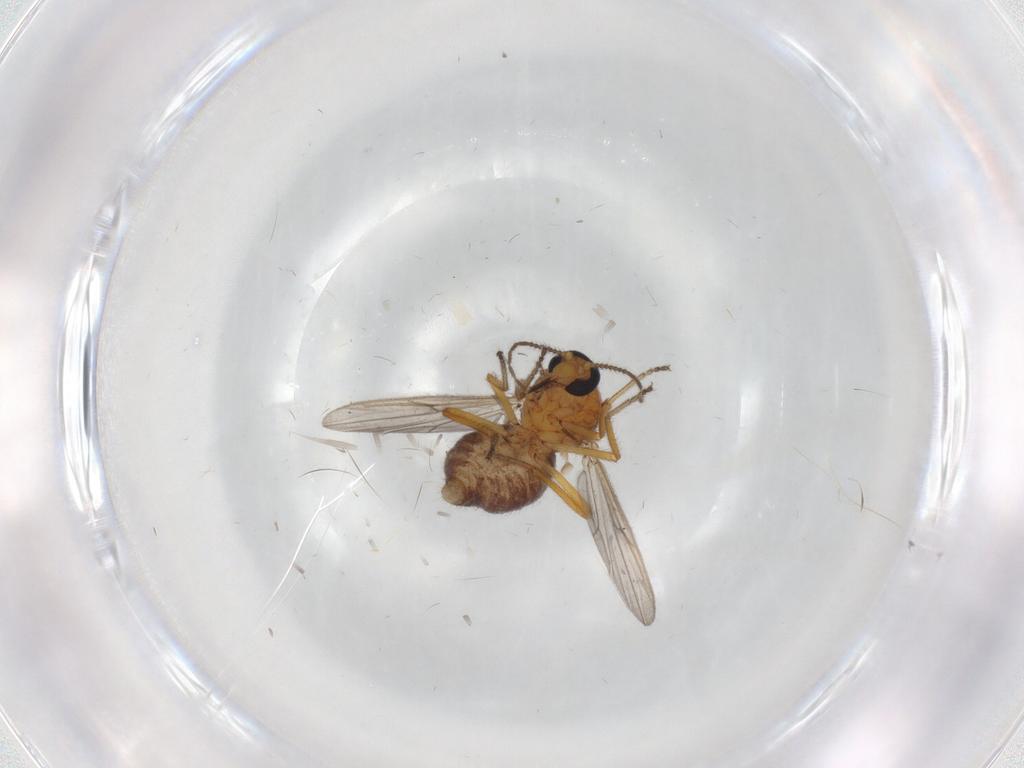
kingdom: Animalia
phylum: Arthropoda
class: Insecta
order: Diptera
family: Ceratopogonidae
